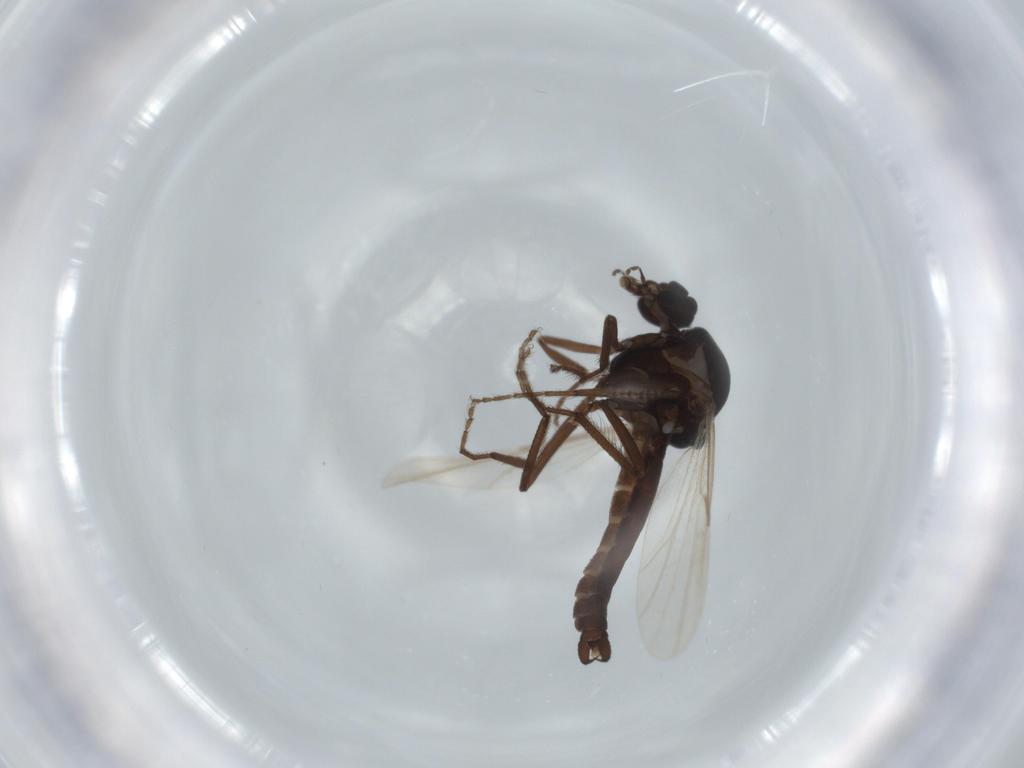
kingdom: Animalia
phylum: Arthropoda
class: Insecta
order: Diptera
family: Ceratopogonidae
